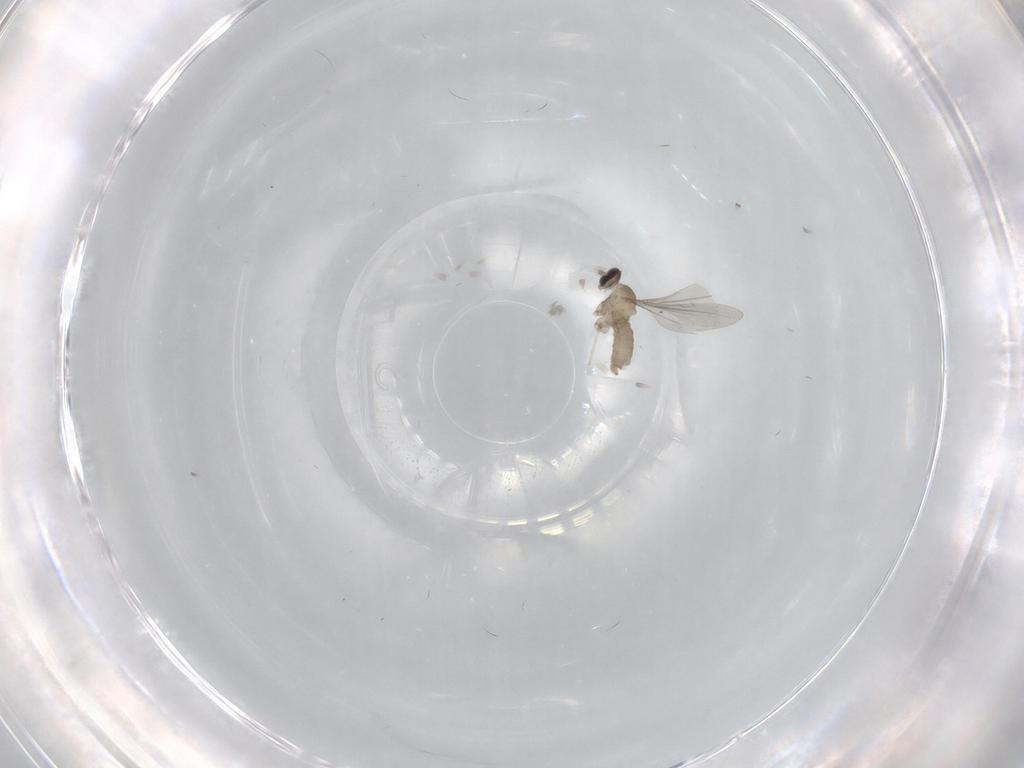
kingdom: Animalia
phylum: Arthropoda
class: Insecta
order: Diptera
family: Cecidomyiidae
